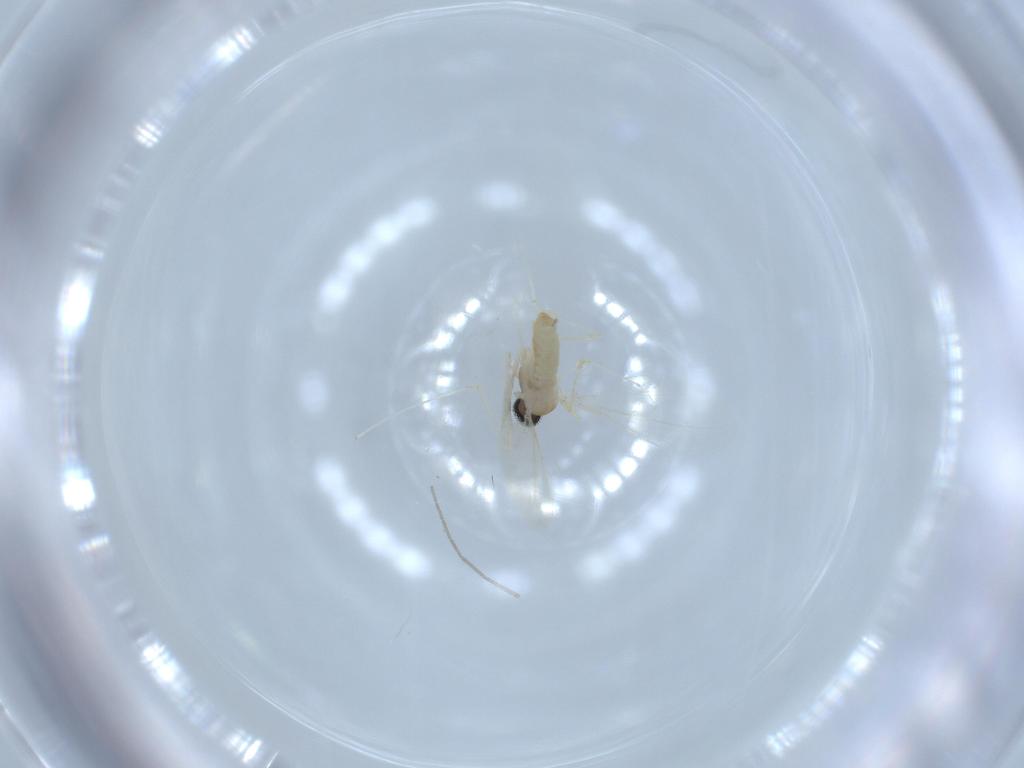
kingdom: Animalia
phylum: Arthropoda
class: Insecta
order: Diptera
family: Cecidomyiidae
